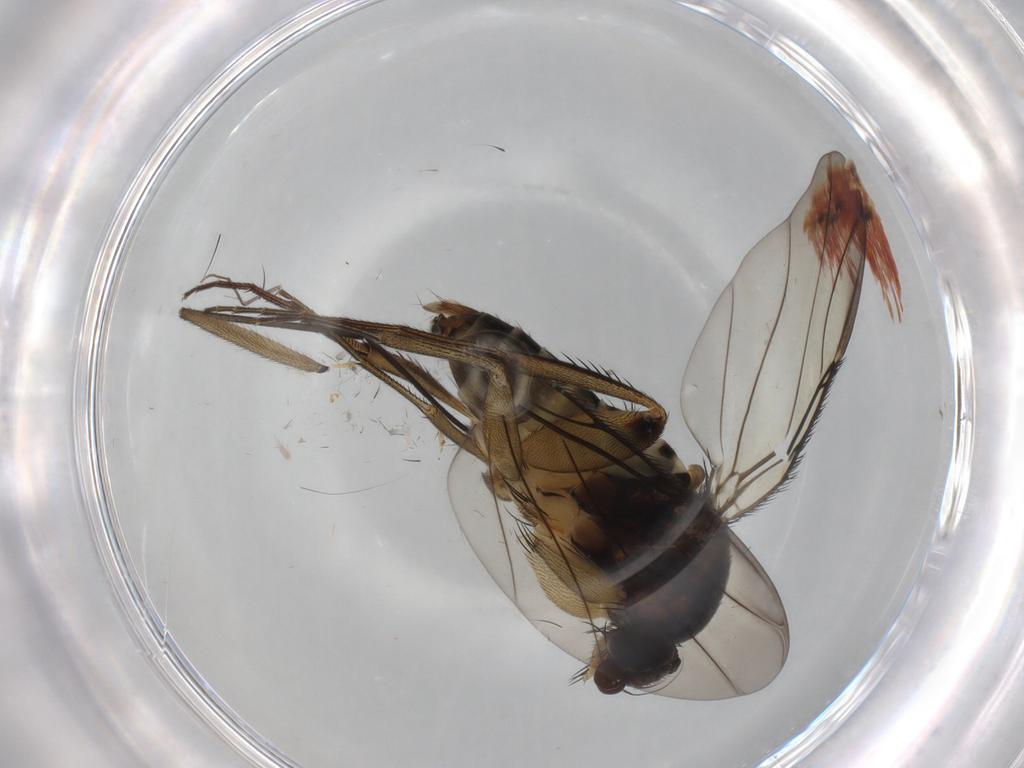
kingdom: Animalia
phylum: Arthropoda
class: Insecta
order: Diptera
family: Phoridae
